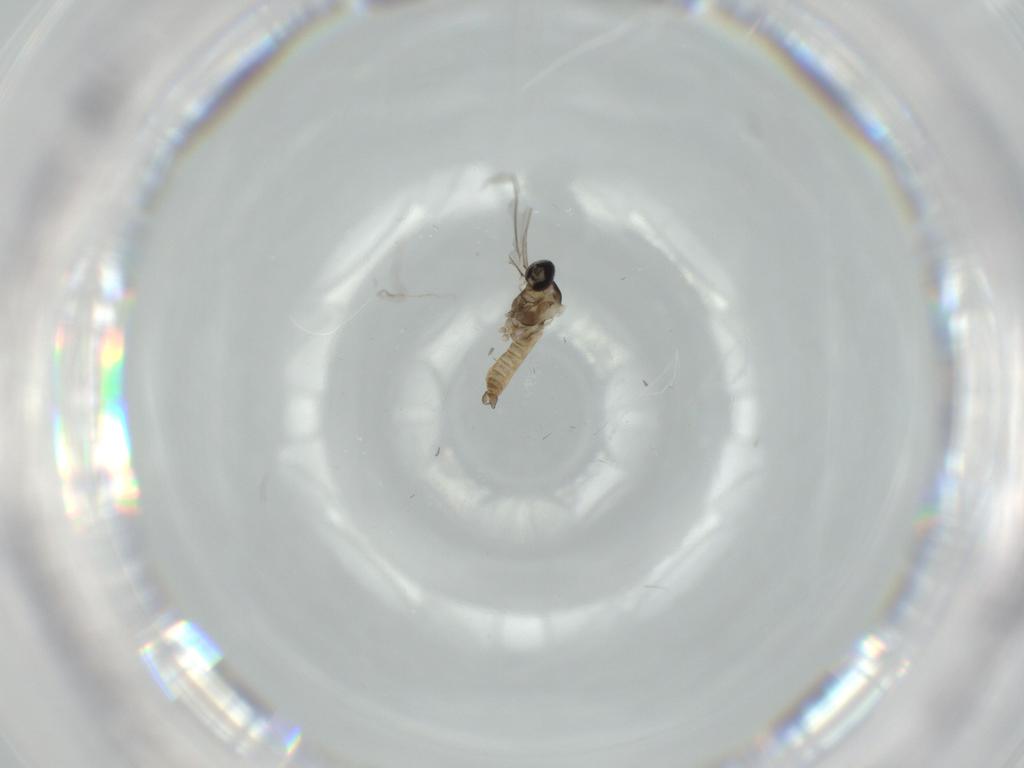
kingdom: Animalia
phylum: Arthropoda
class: Insecta
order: Diptera
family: Cecidomyiidae
